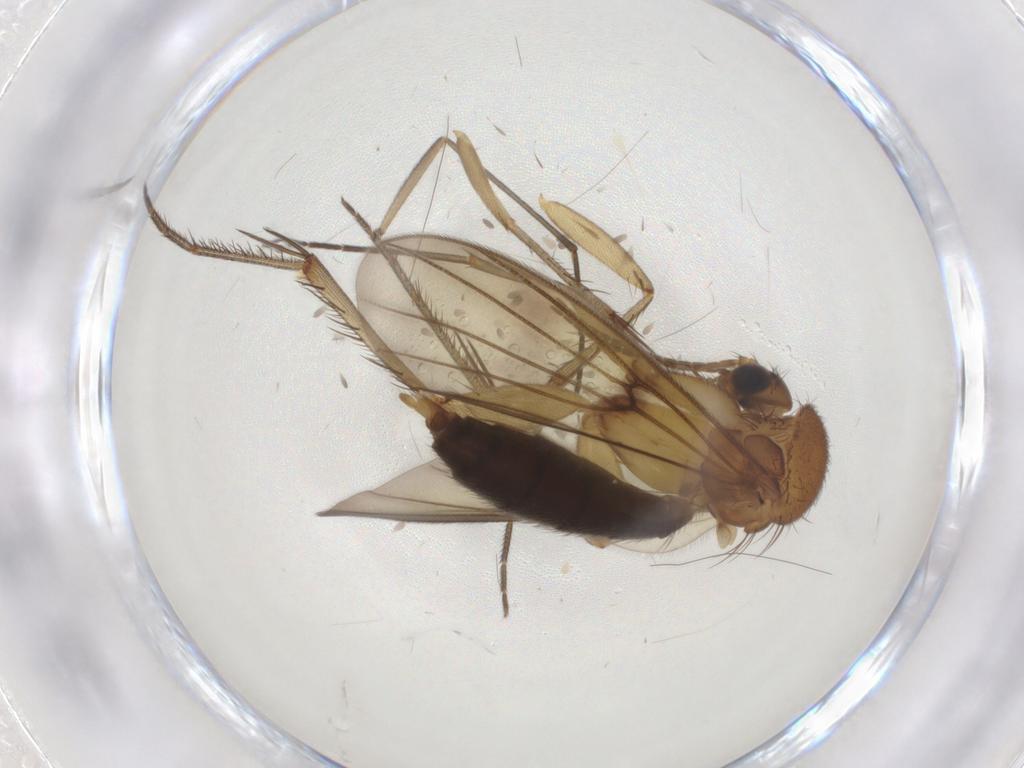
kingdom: Animalia
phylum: Arthropoda
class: Insecta
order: Diptera
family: Mycetophilidae
